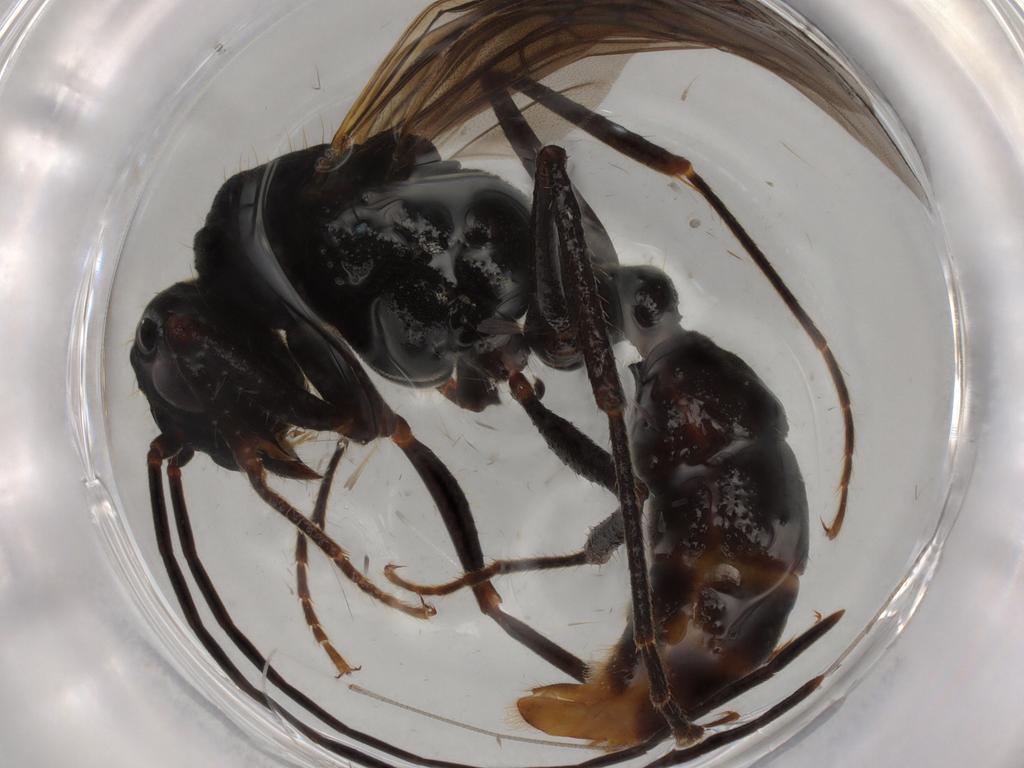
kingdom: Animalia
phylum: Arthropoda
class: Insecta
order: Hymenoptera
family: Formicidae
